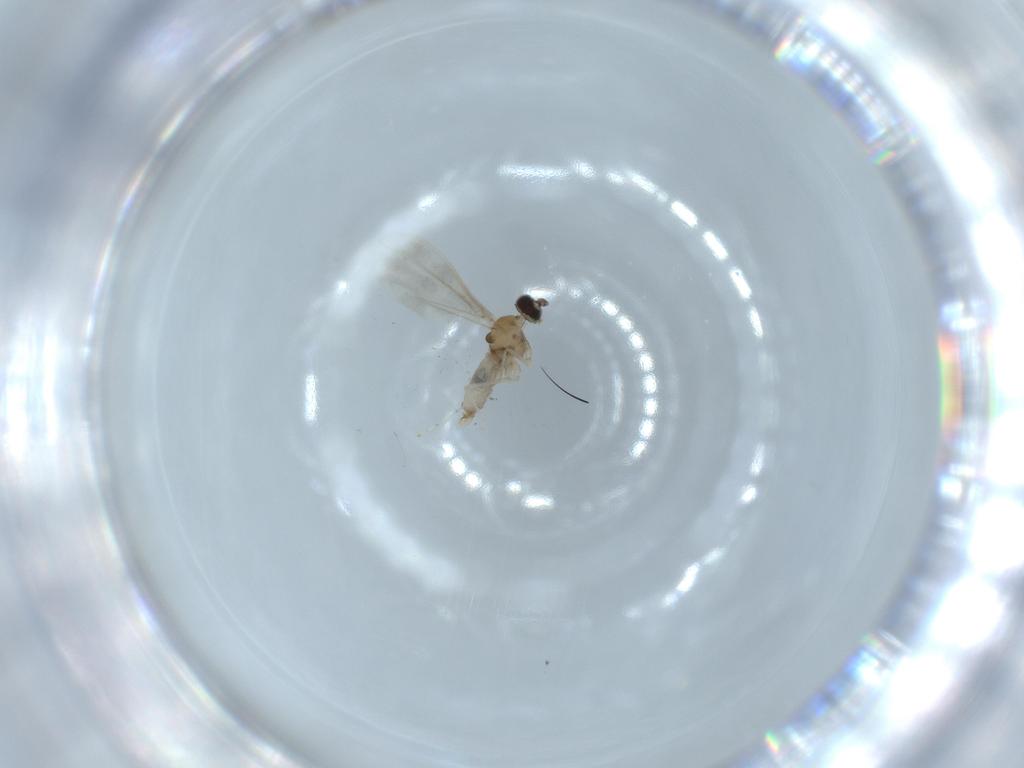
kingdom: Animalia
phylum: Arthropoda
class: Insecta
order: Diptera
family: Cecidomyiidae
